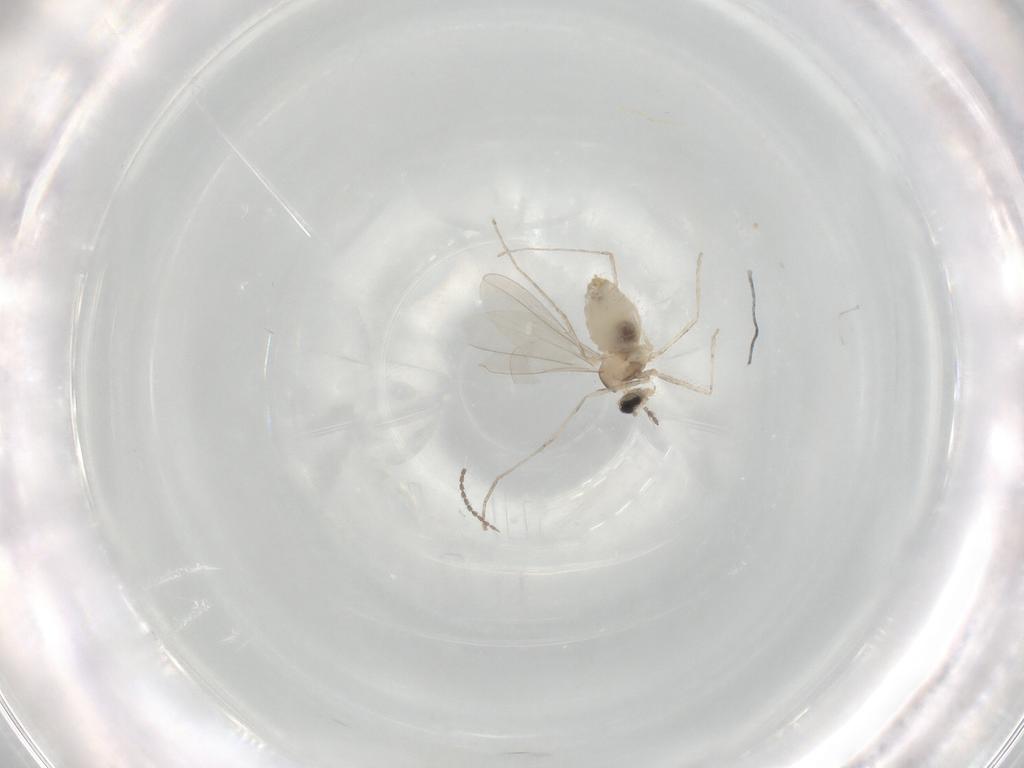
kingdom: Animalia
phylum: Arthropoda
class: Insecta
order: Diptera
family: Cecidomyiidae
